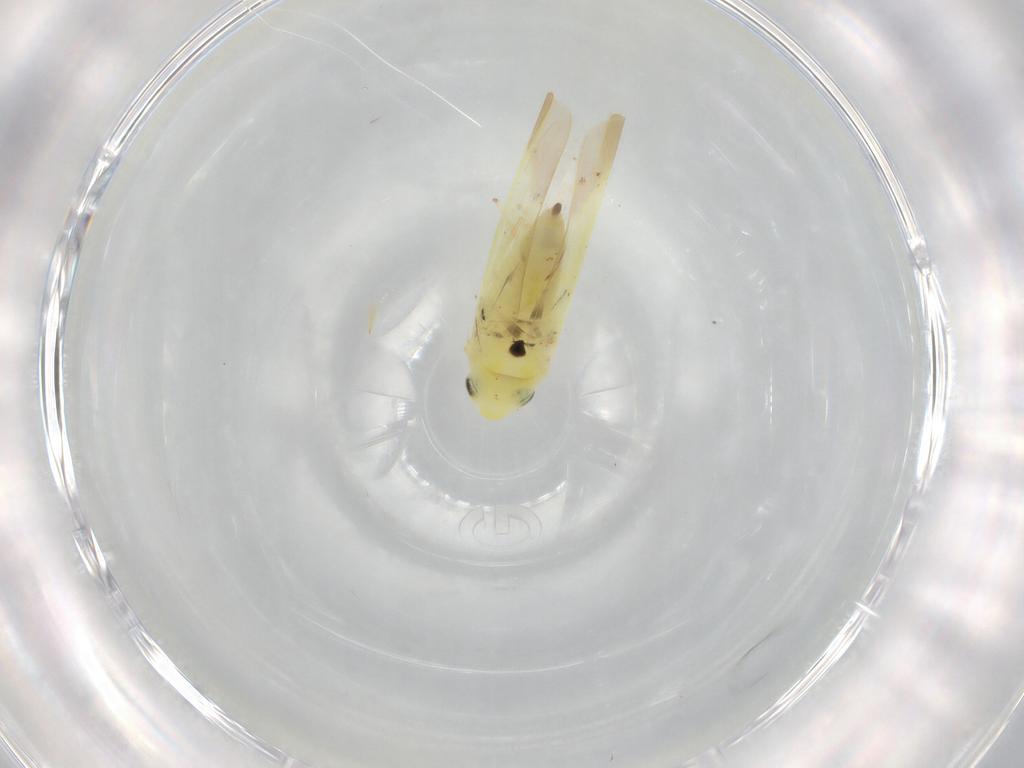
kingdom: Animalia
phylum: Arthropoda
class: Insecta
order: Hemiptera
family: Cicadellidae
